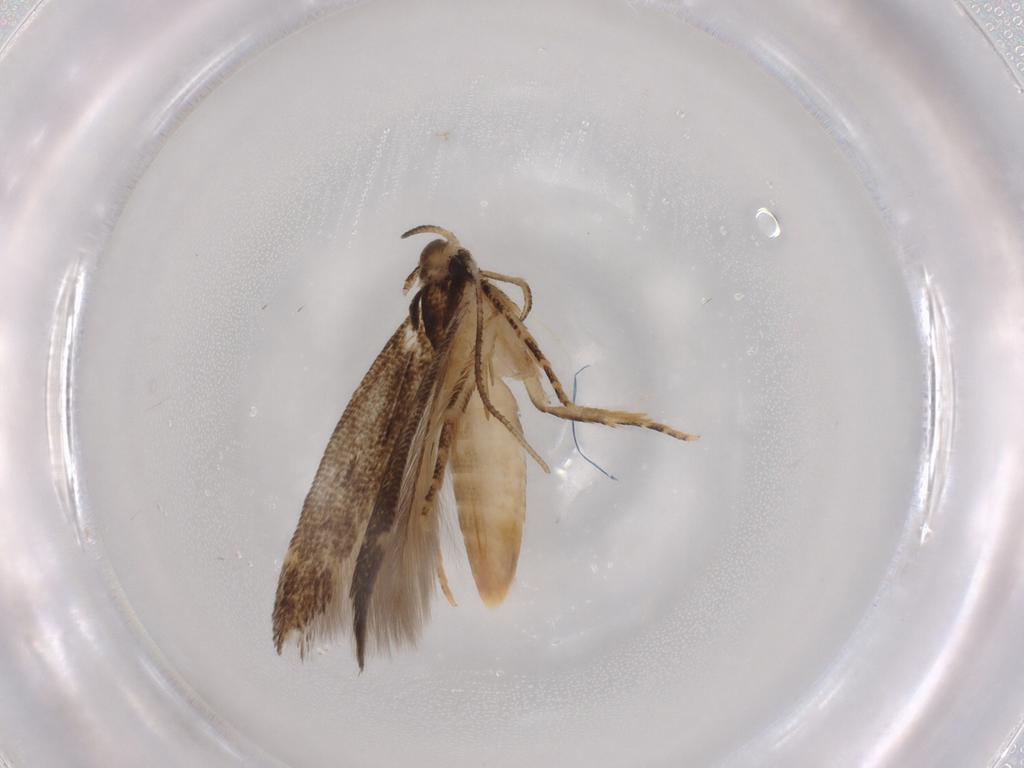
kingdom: Animalia
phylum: Arthropoda
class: Insecta
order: Lepidoptera
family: Cosmopterigidae
